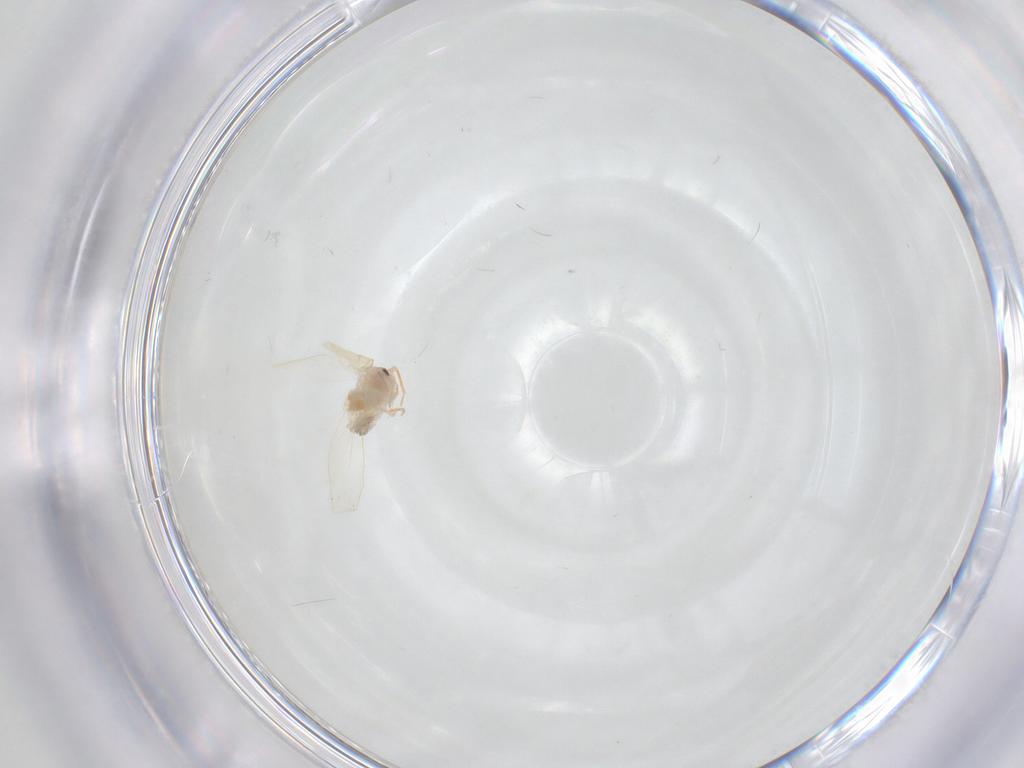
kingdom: Animalia
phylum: Arthropoda
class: Insecta
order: Hemiptera
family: Aleyrodidae
